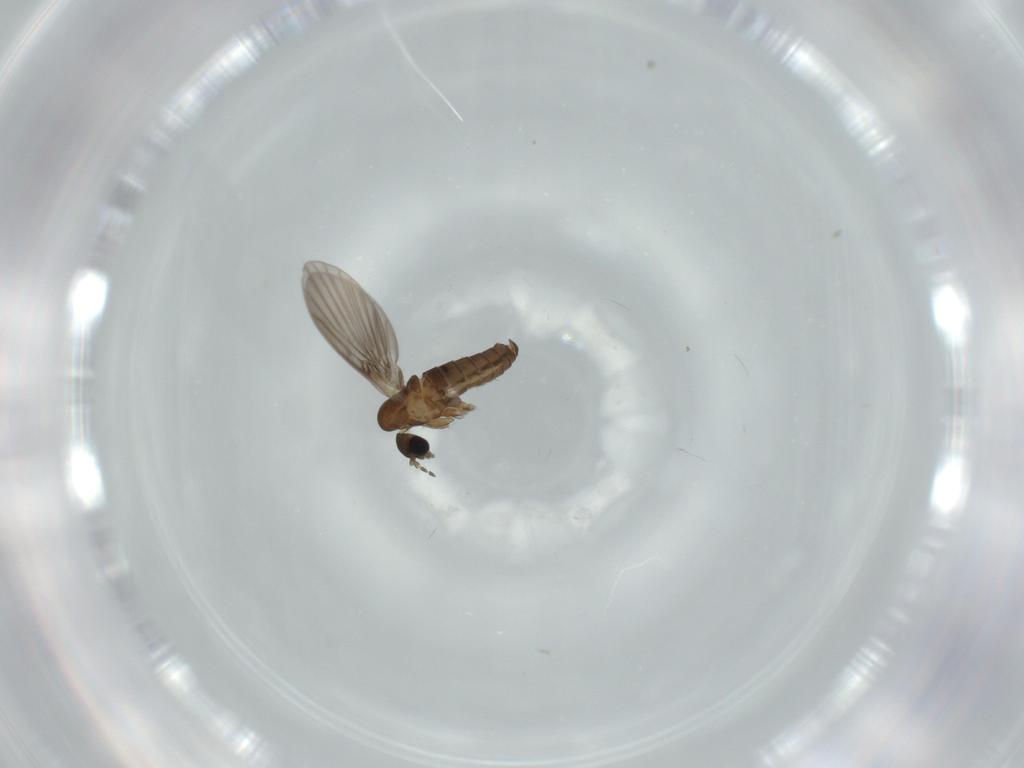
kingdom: Animalia
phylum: Arthropoda
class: Insecta
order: Diptera
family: Psychodidae
